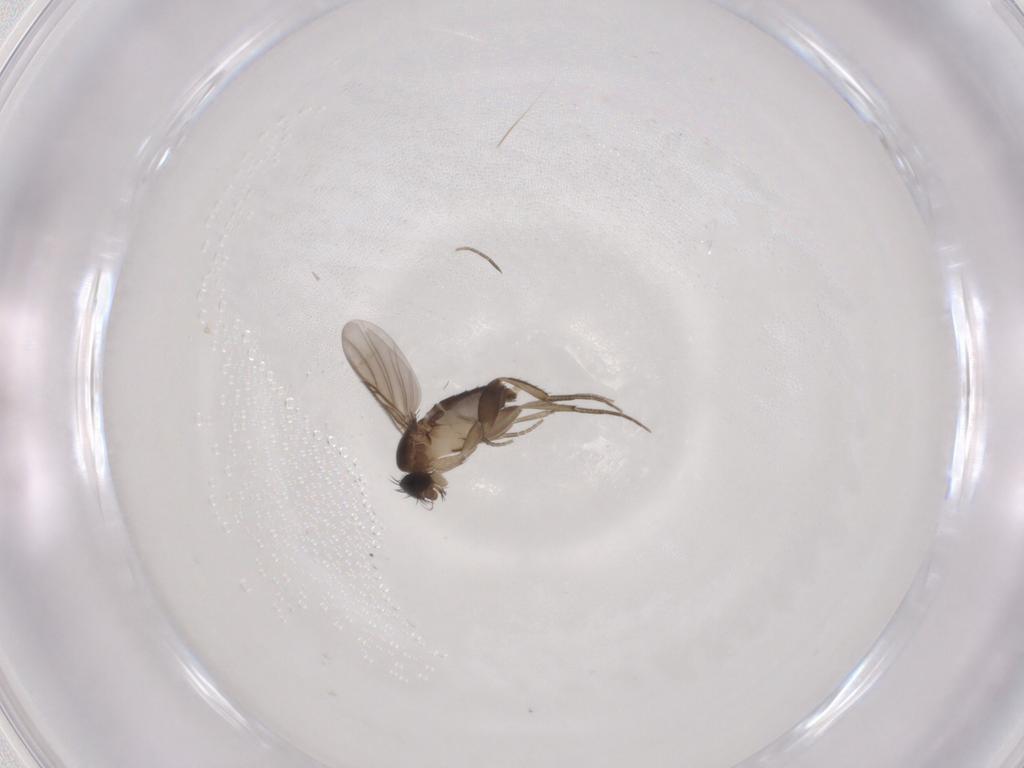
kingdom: Animalia
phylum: Arthropoda
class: Insecta
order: Diptera
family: Phoridae
